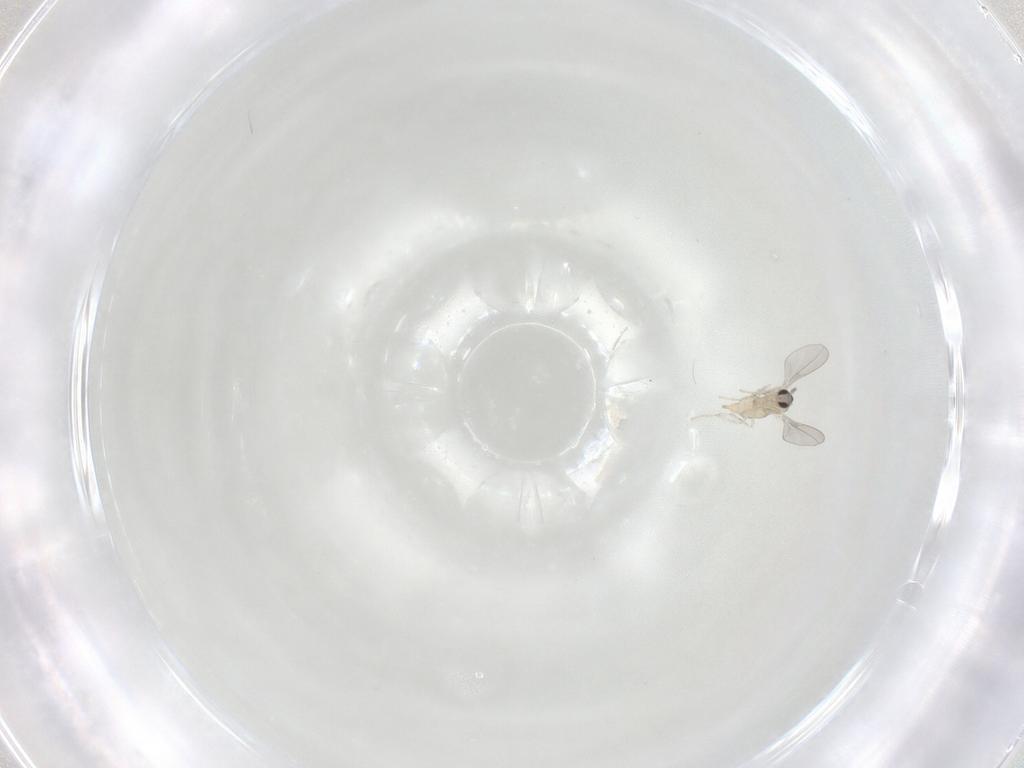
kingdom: Animalia
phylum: Arthropoda
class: Insecta
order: Diptera
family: Cecidomyiidae
